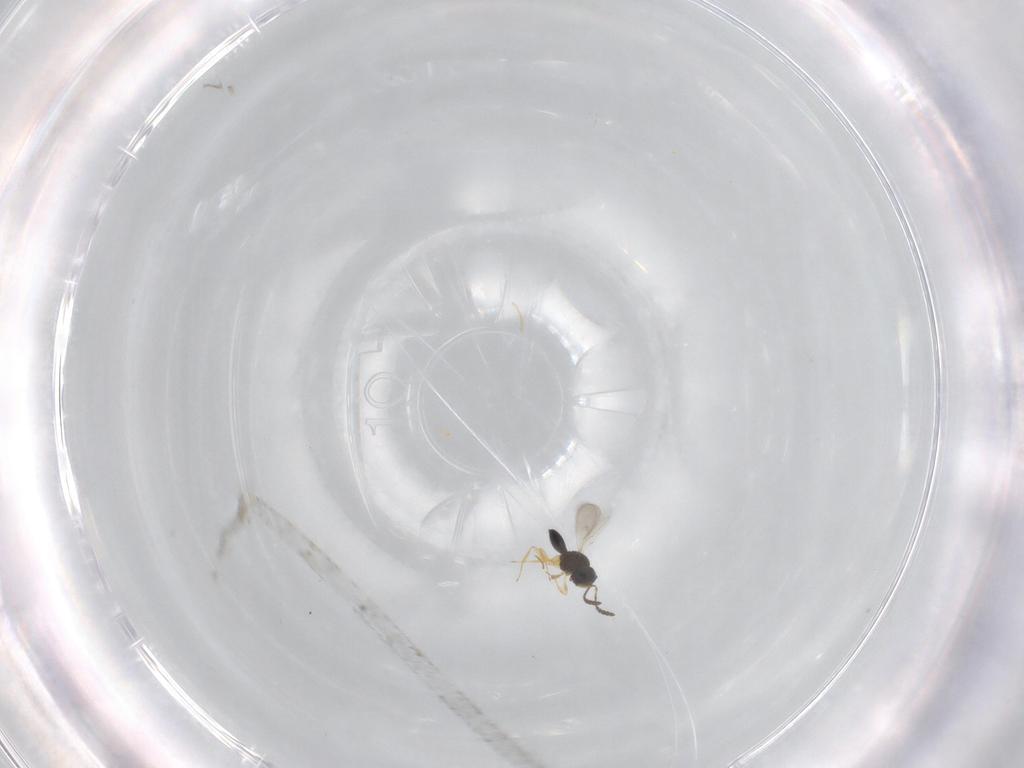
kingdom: Animalia
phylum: Arthropoda
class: Insecta
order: Hymenoptera
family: Scelionidae
